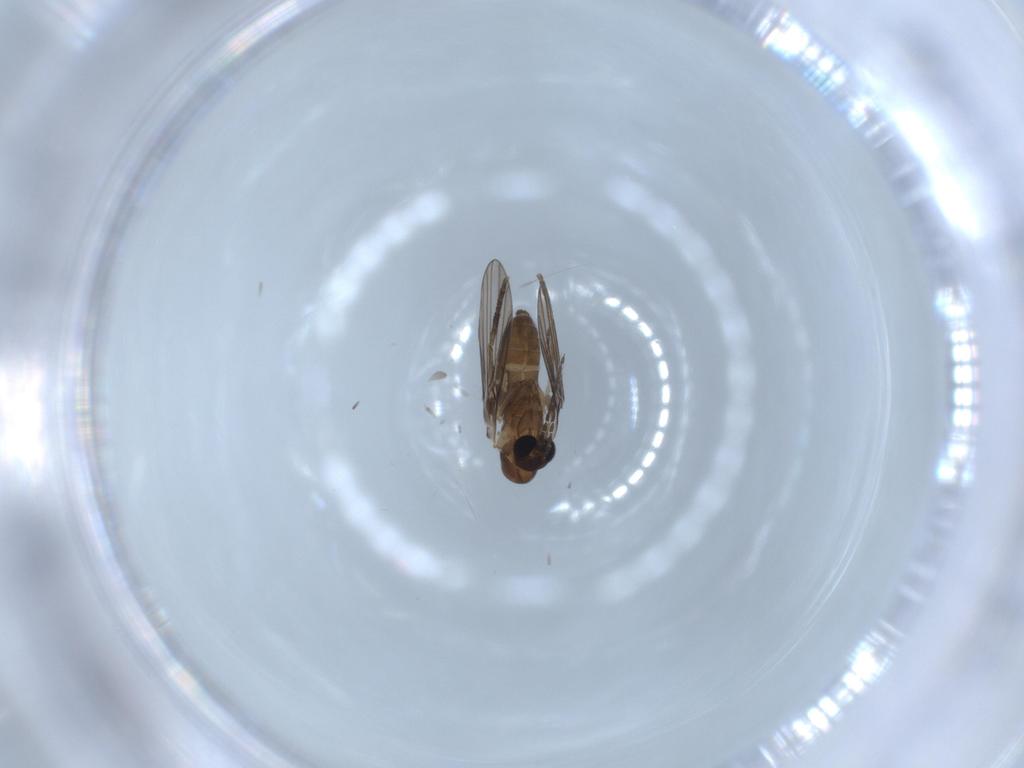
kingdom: Animalia
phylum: Arthropoda
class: Insecta
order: Diptera
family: Psychodidae
